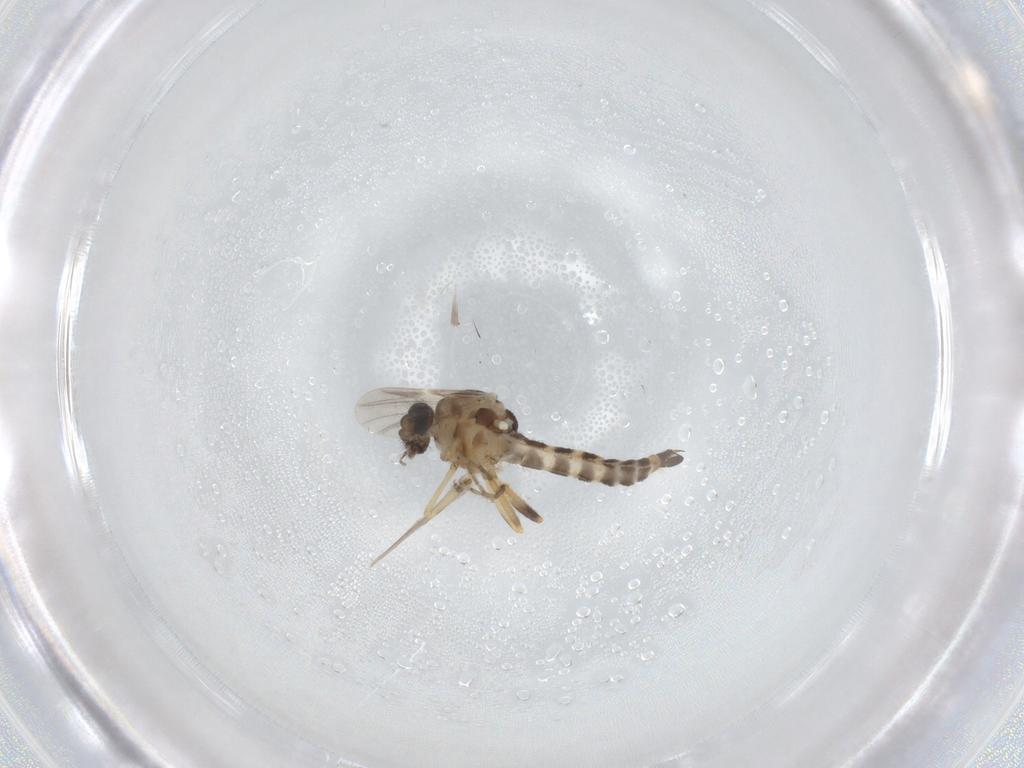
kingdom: Animalia
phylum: Arthropoda
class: Insecta
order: Diptera
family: Ceratopogonidae
